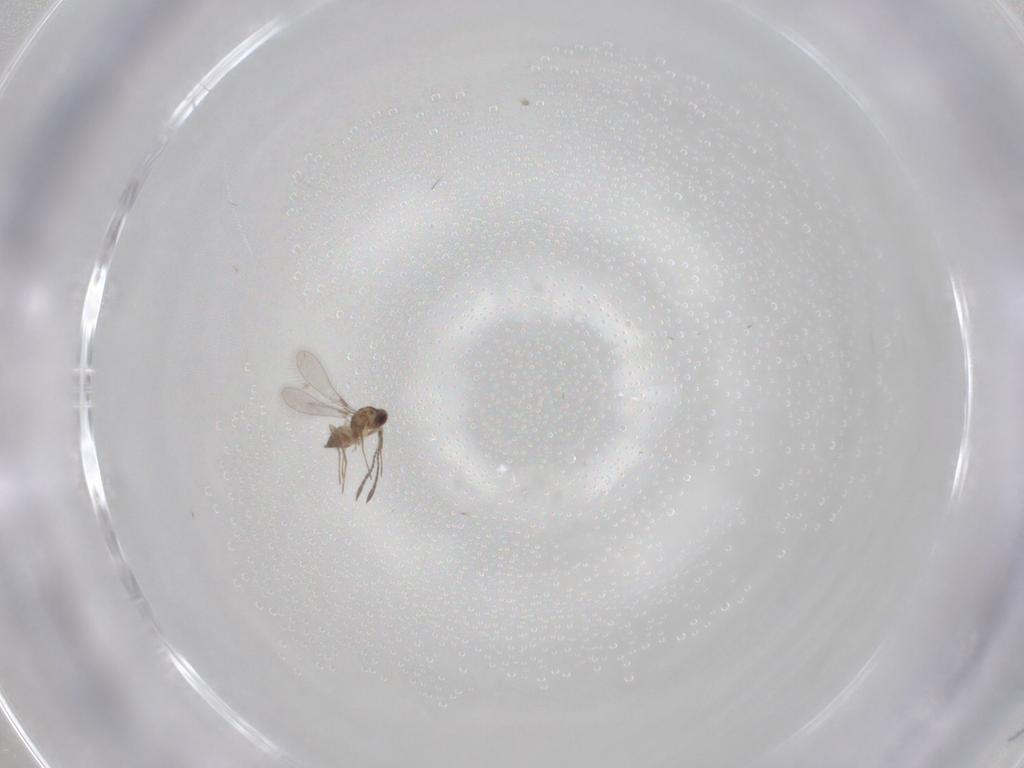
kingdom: Animalia
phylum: Arthropoda
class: Insecta
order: Hymenoptera
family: Mymaridae
